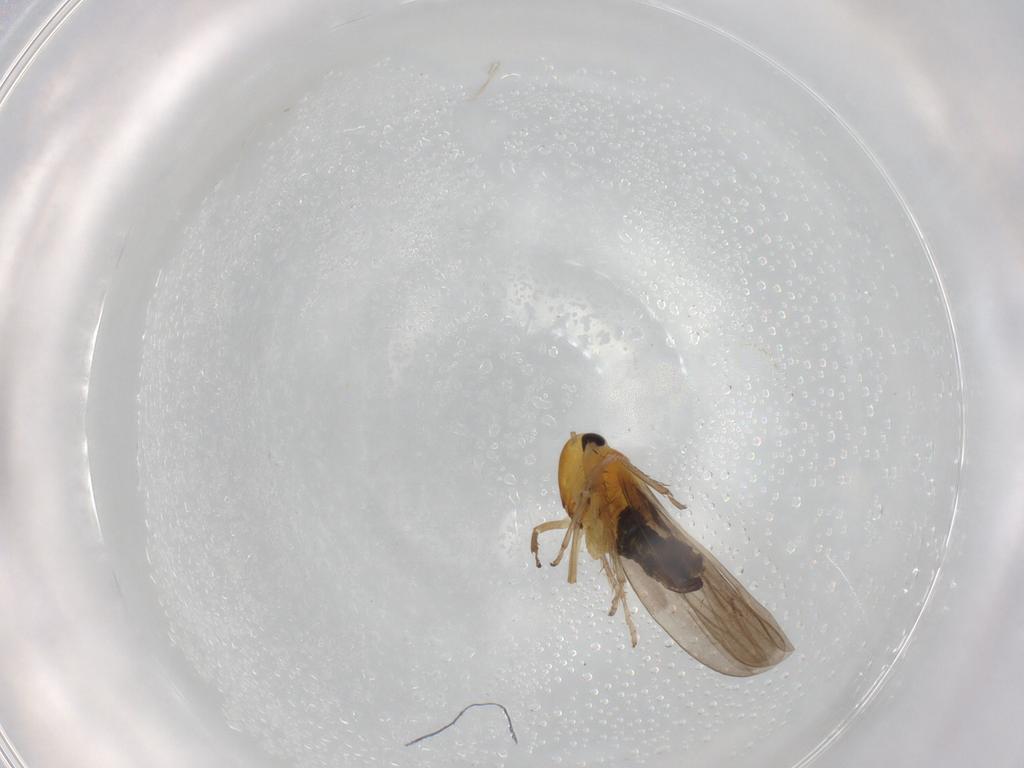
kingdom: Animalia
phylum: Arthropoda
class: Insecta
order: Hemiptera
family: Cicadellidae
